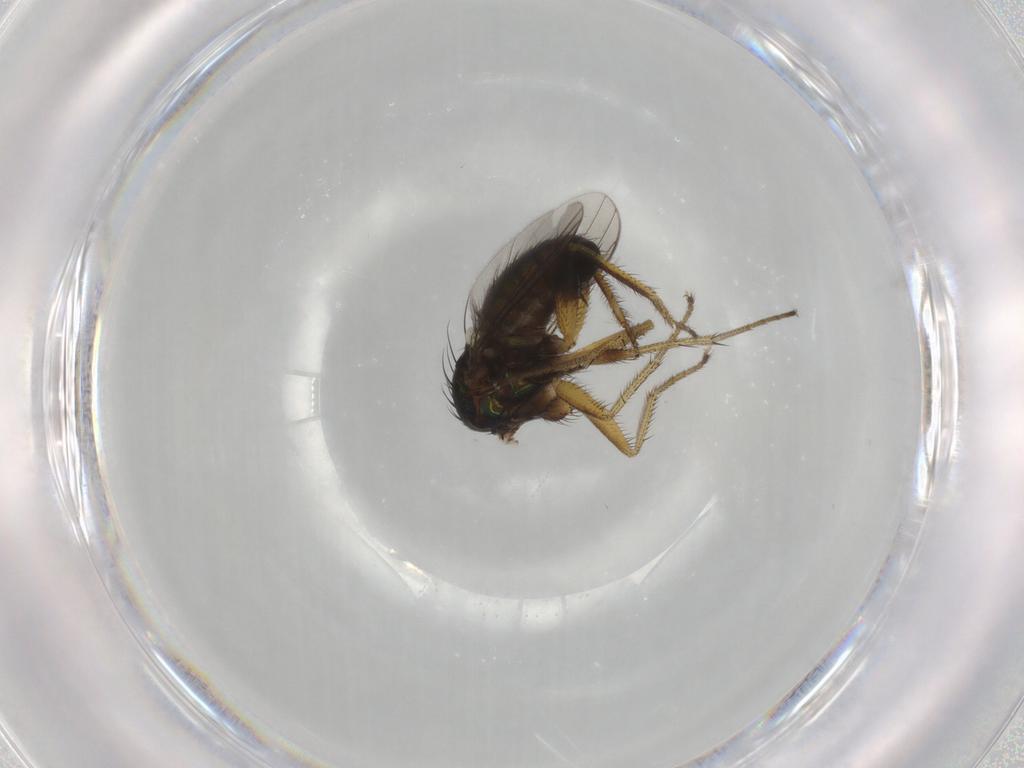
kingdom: Animalia
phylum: Arthropoda
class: Insecta
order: Diptera
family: Dolichopodidae
